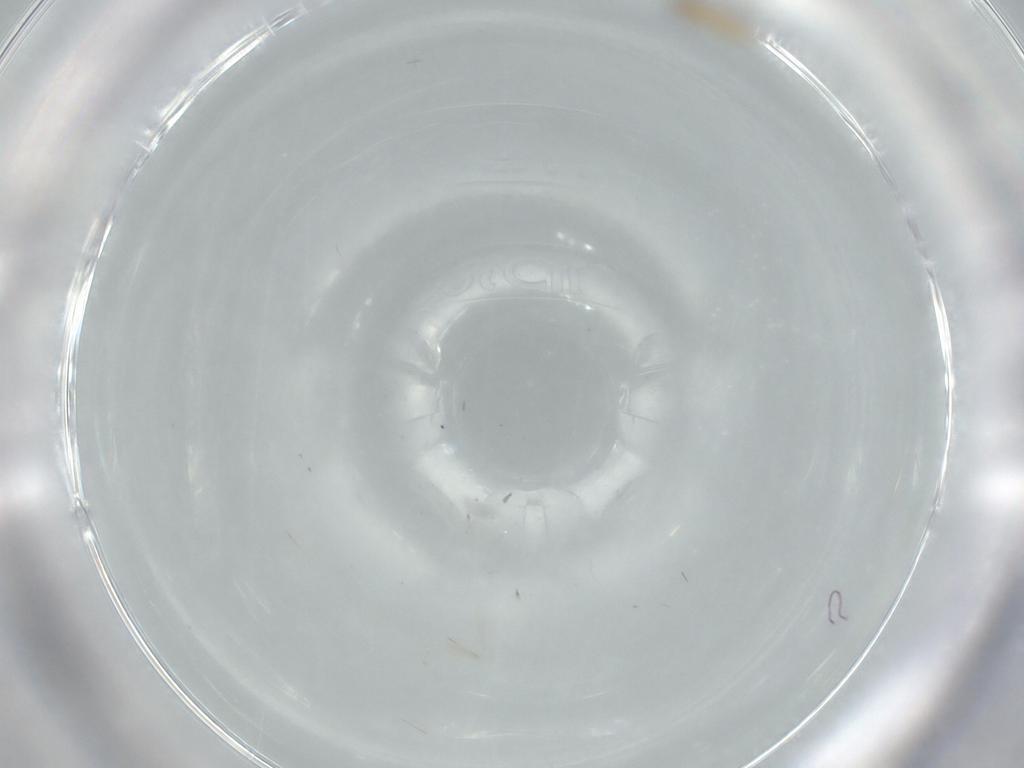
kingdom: Animalia
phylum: Arthropoda
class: Insecta
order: Diptera
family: Cecidomyiidae
